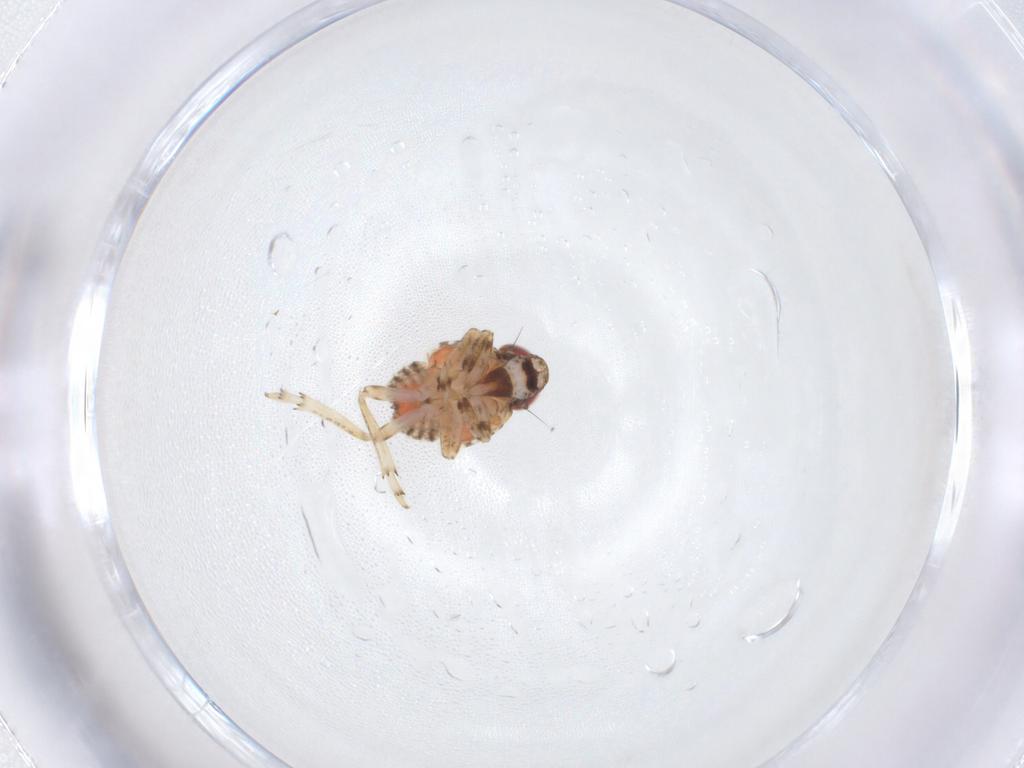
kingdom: Animalia
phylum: Arthropoda
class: Insecta
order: Hemiptera
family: Issidae
